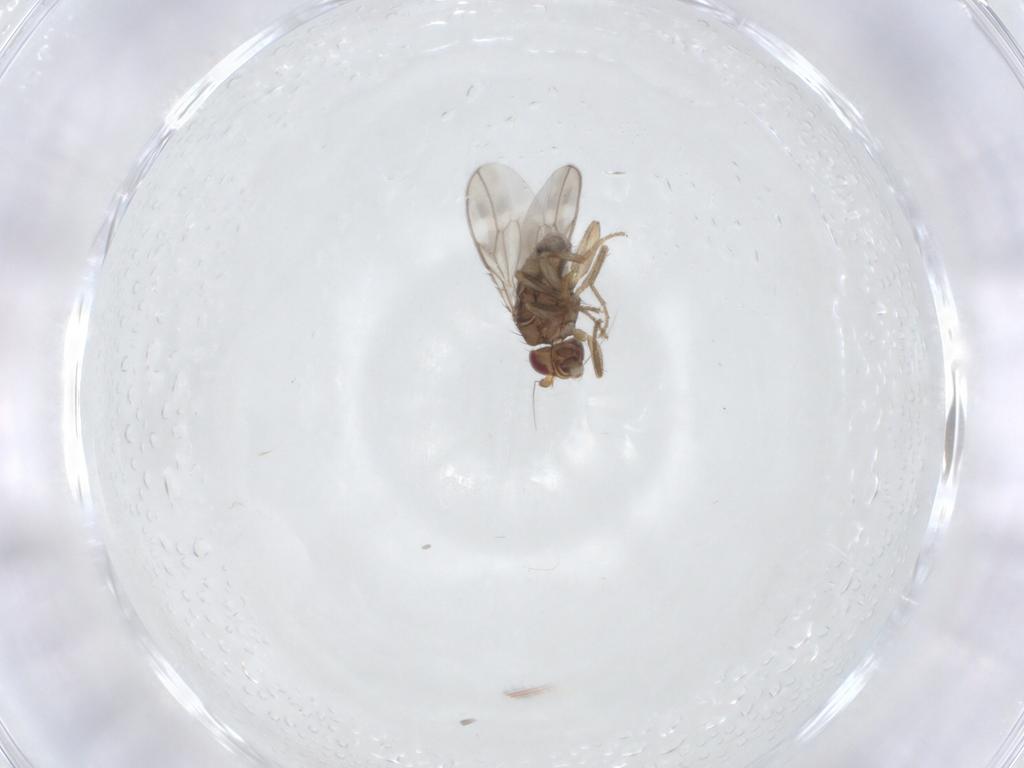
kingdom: Animalia
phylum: Arthropoda
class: Insecta
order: Diptera
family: Sphaeroceridae
